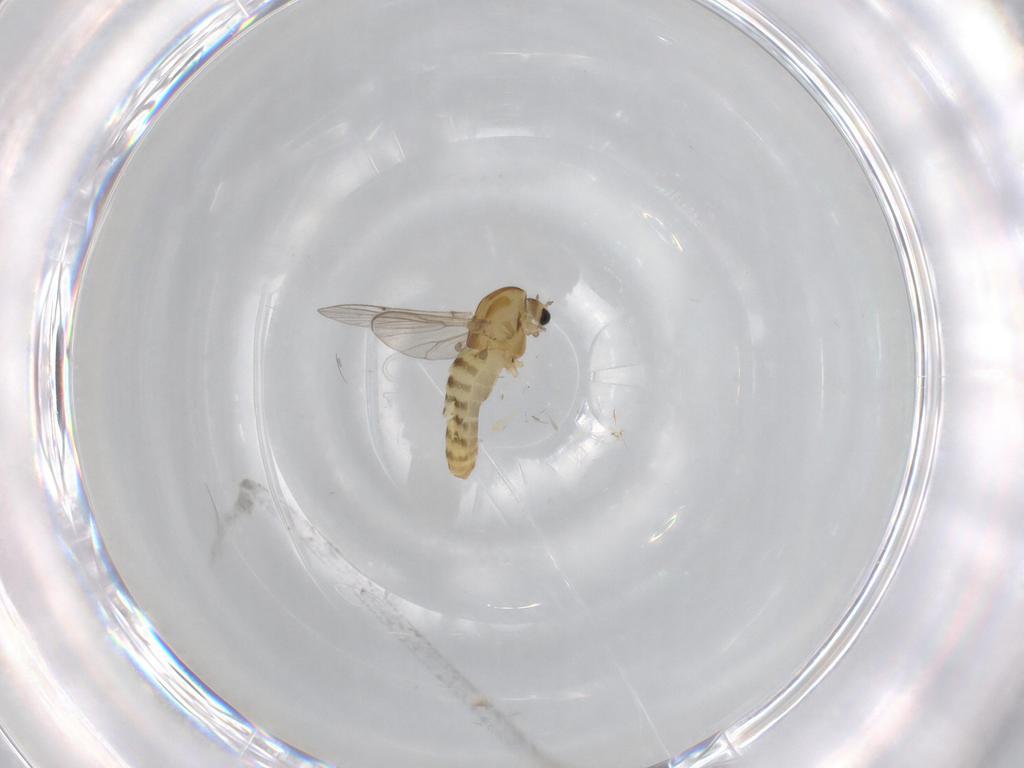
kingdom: Animalia
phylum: Arthropoda
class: Insecta
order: Diptera
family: Chironomidae
